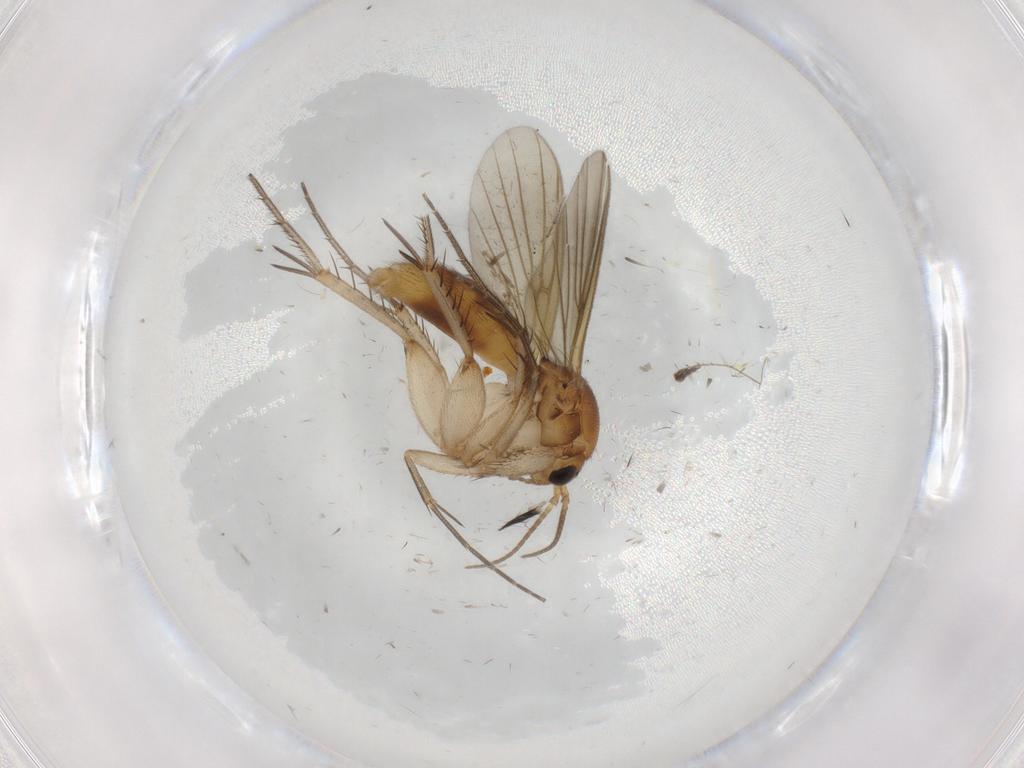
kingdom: Animalia
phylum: Arthropoda
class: Insecta
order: Diptera
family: Mycetophilidae
